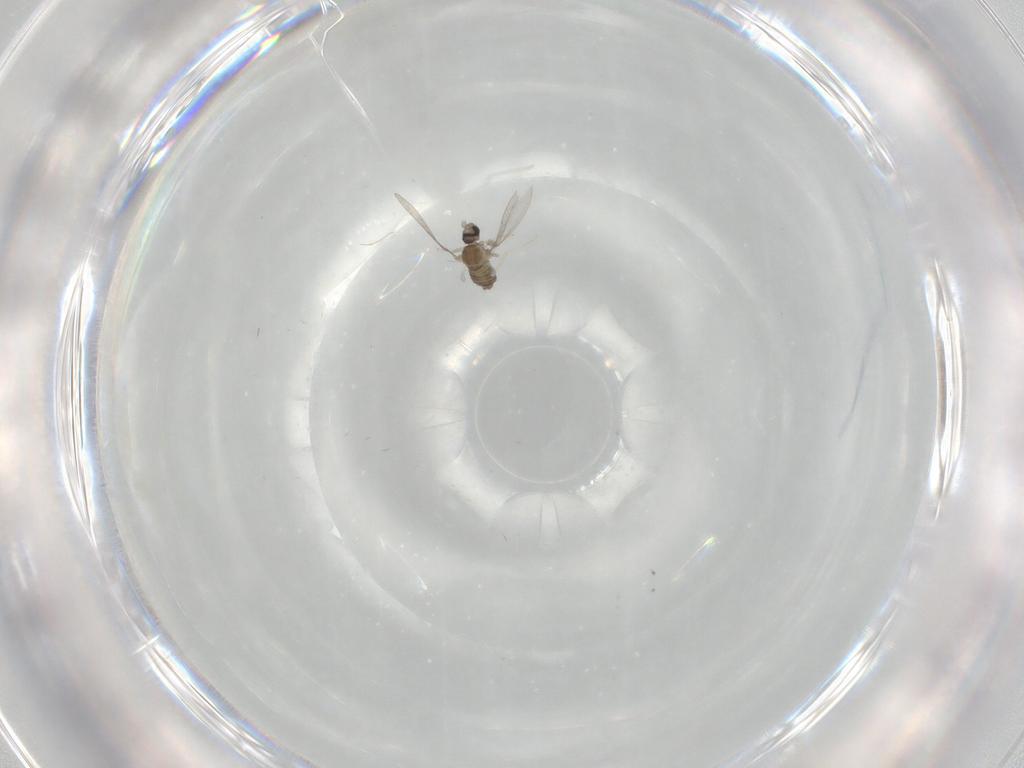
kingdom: Animalia
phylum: Arthropoda
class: Insecta
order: Diptera
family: Cecidomyiidae
